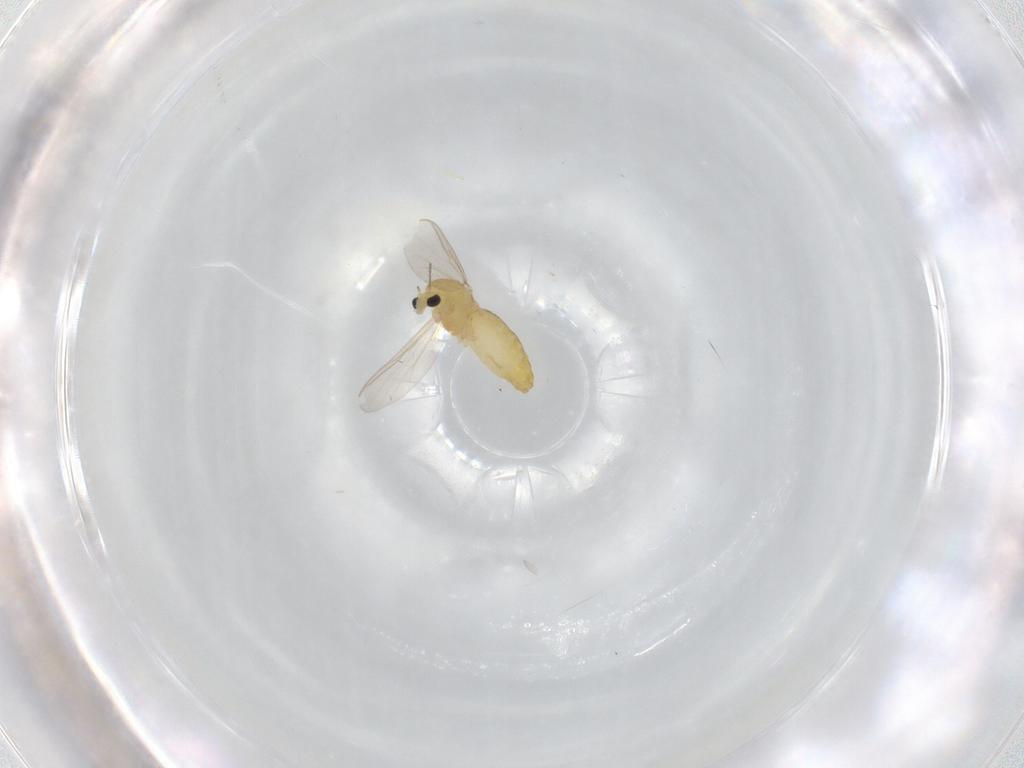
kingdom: Animalia
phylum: Arthropoda
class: Insecta
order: Diptera
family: Chironomidae
